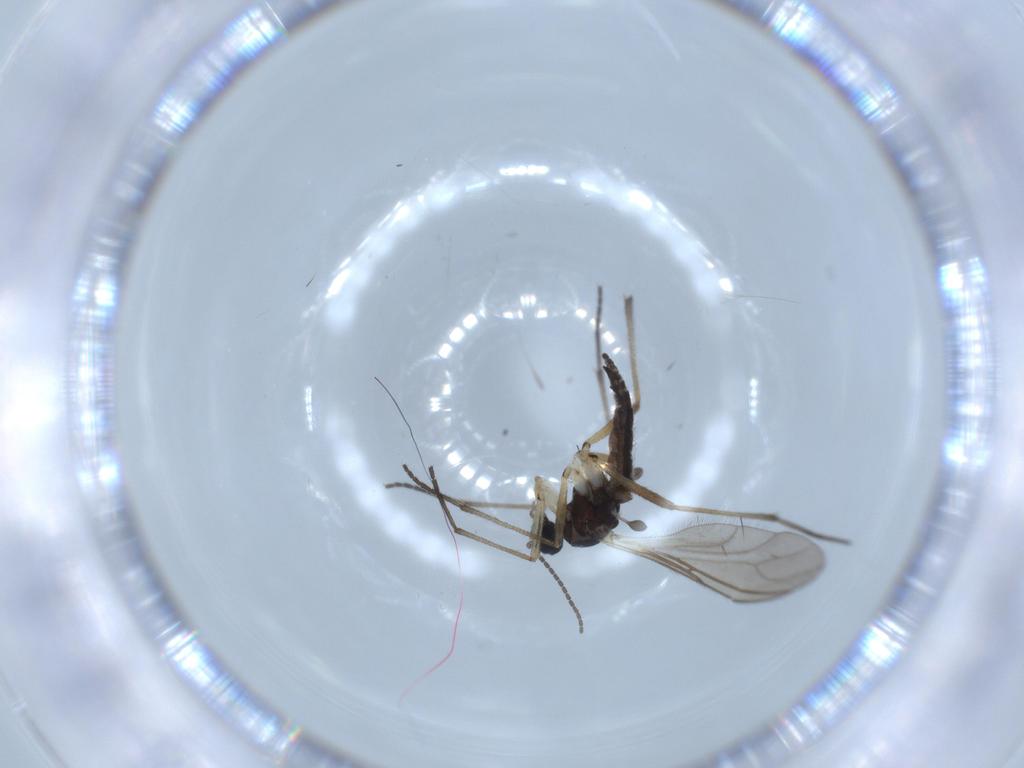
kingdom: Animalia
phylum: Arthropoda
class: Insecta
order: Diptera
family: Sciaridae
